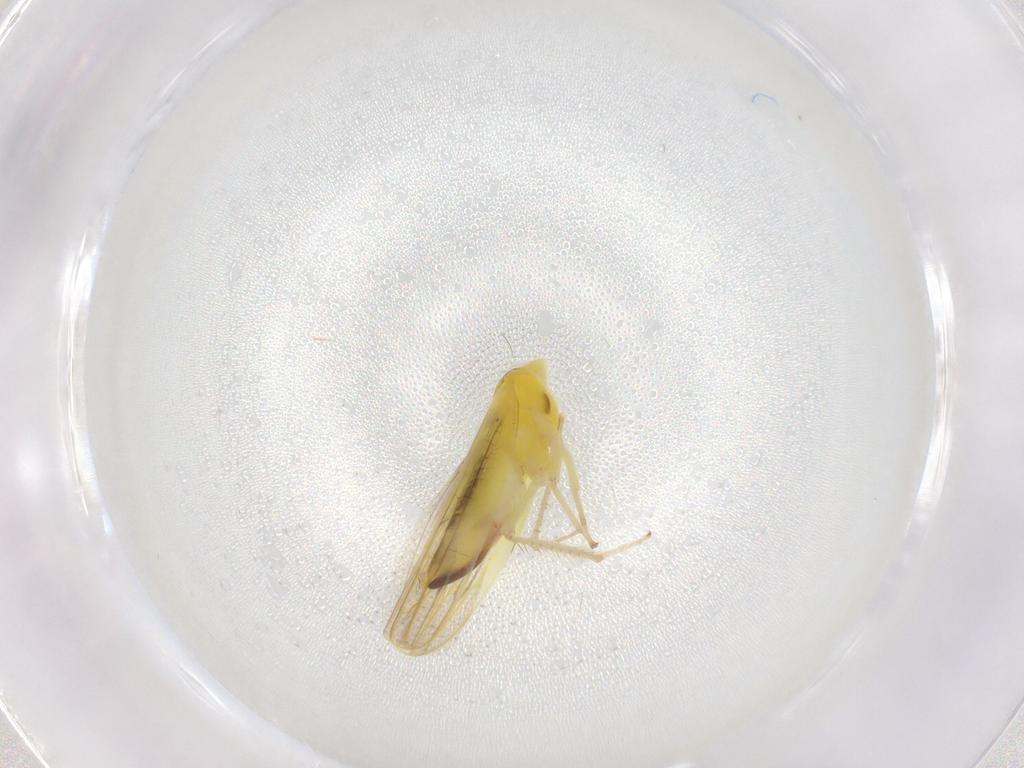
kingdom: Animalia
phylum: Arthropoda
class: Insecta
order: Hemiptera
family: Cicadellidae
